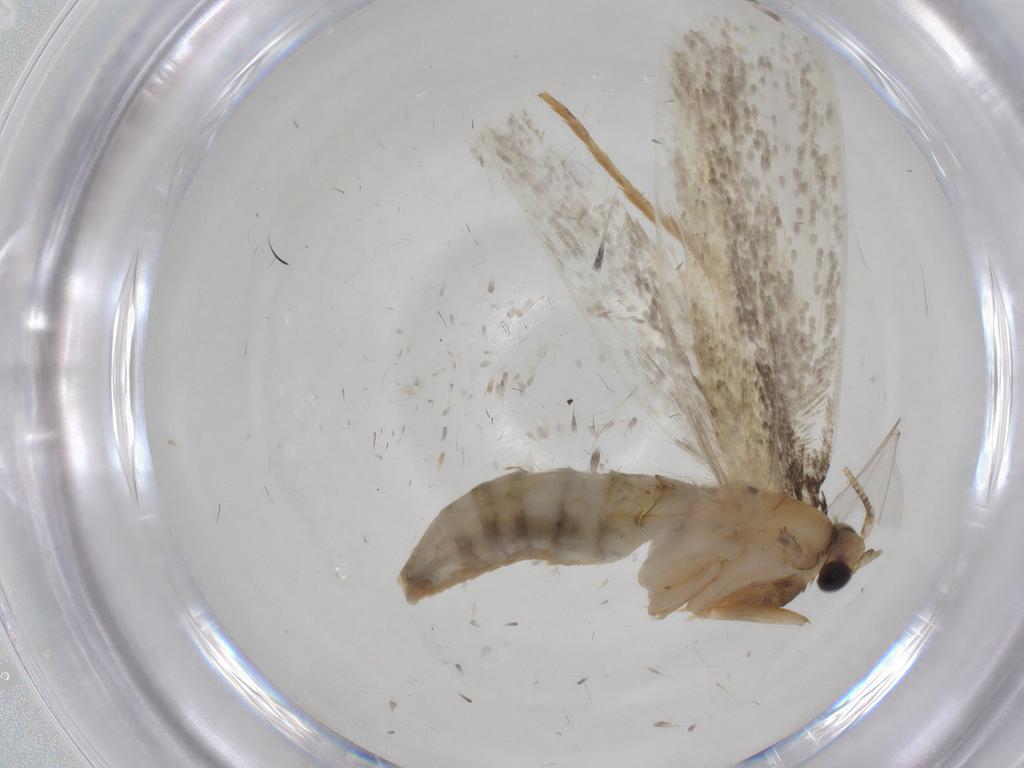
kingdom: Animalia
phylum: Arthropoda
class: Insecta
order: Lepidoptera
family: Tineidae
